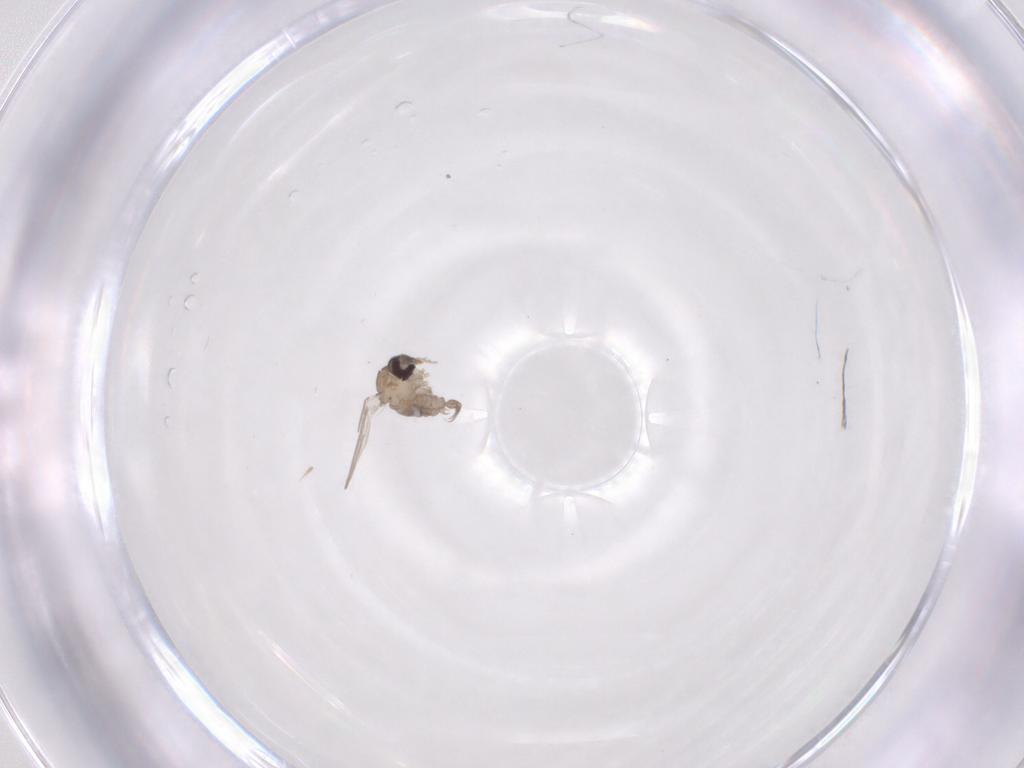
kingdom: Animalia
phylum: Arthropoda
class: Insecta
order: Diptera
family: Psychodidae
